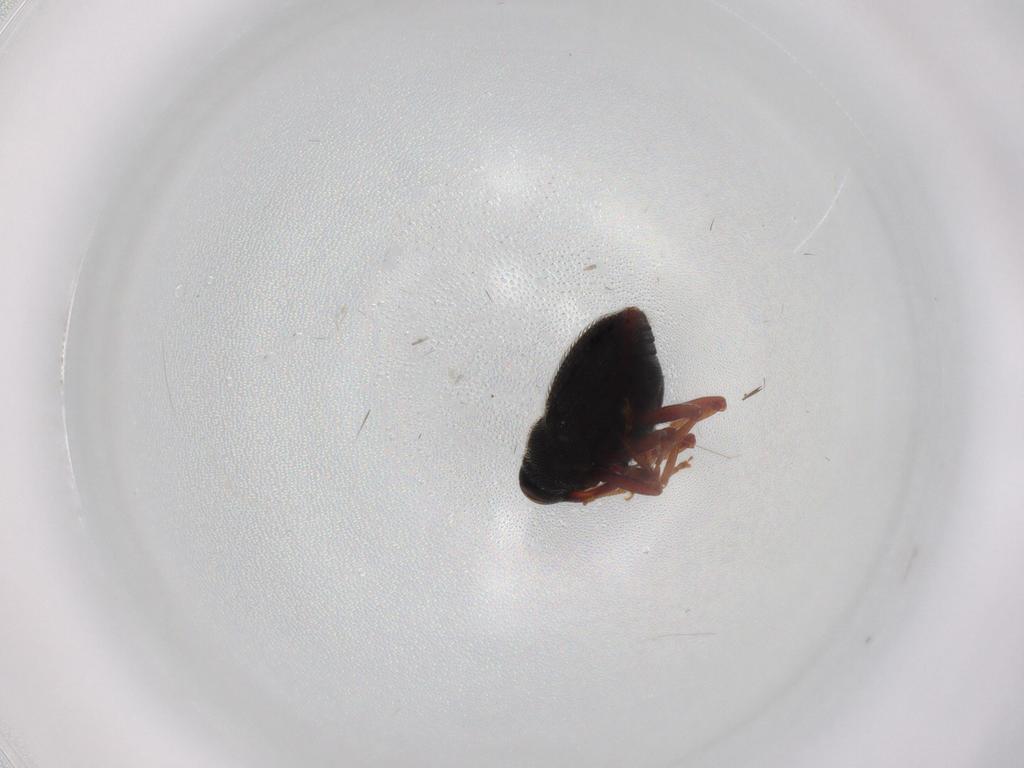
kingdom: Animalia
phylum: Arthropoda
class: Insecta
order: Coleoptera
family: Curculionidae
